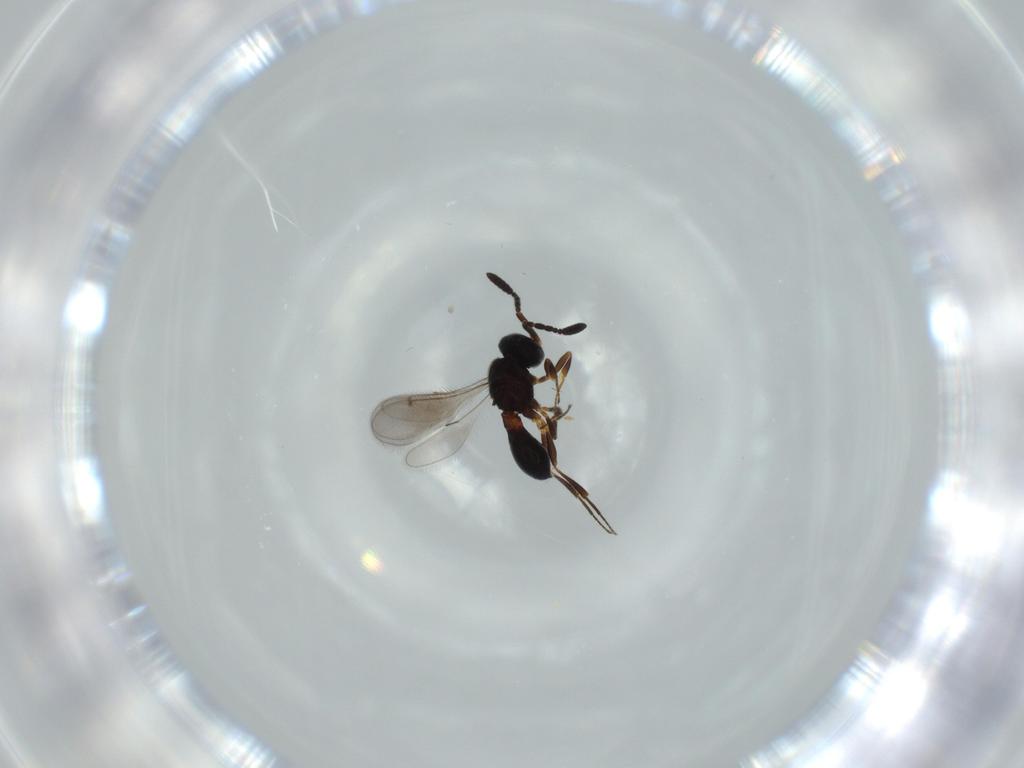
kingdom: Animalia
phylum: Arthropoda
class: Insecta
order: Hymenoptera
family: Scelionidae
